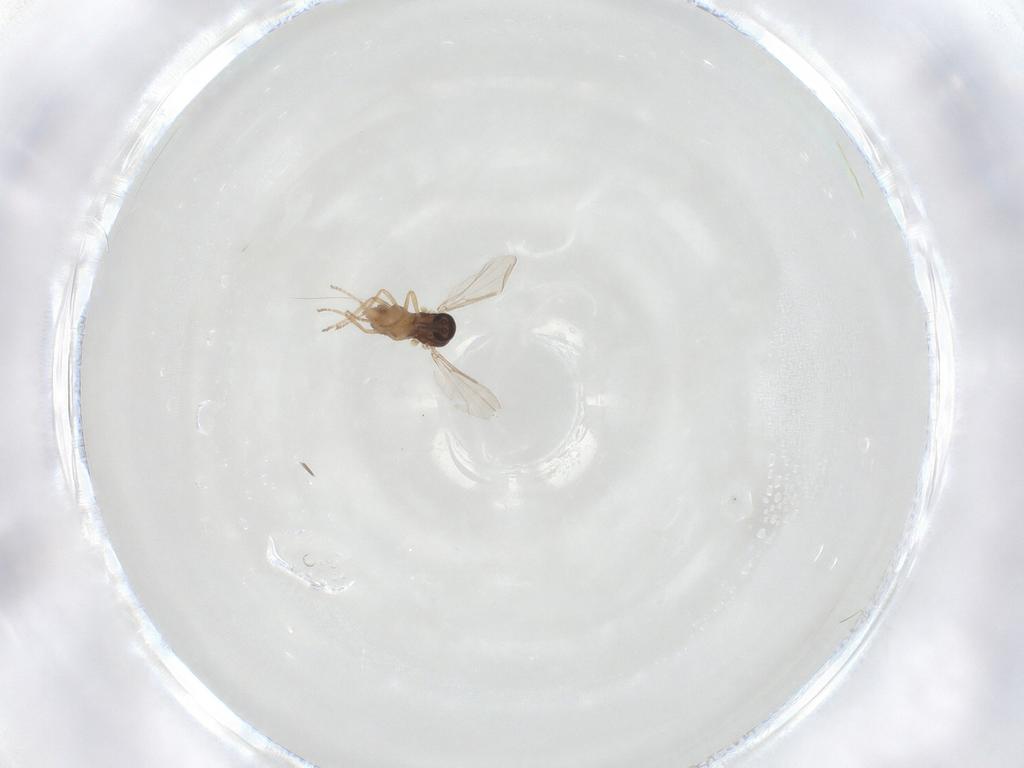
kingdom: Animalia
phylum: Arthropoda
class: Insecta
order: Diptera
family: Ceratopogonidae
